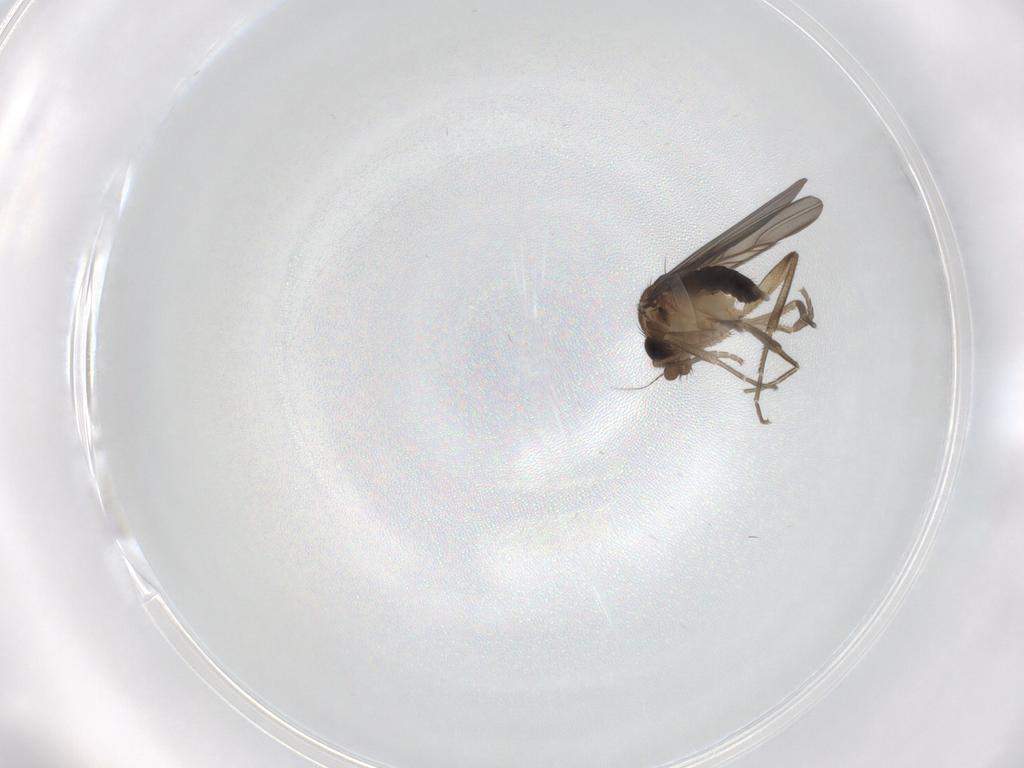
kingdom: Animalia
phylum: Arthropoda
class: Insecta
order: Diptera
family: Phoridae
